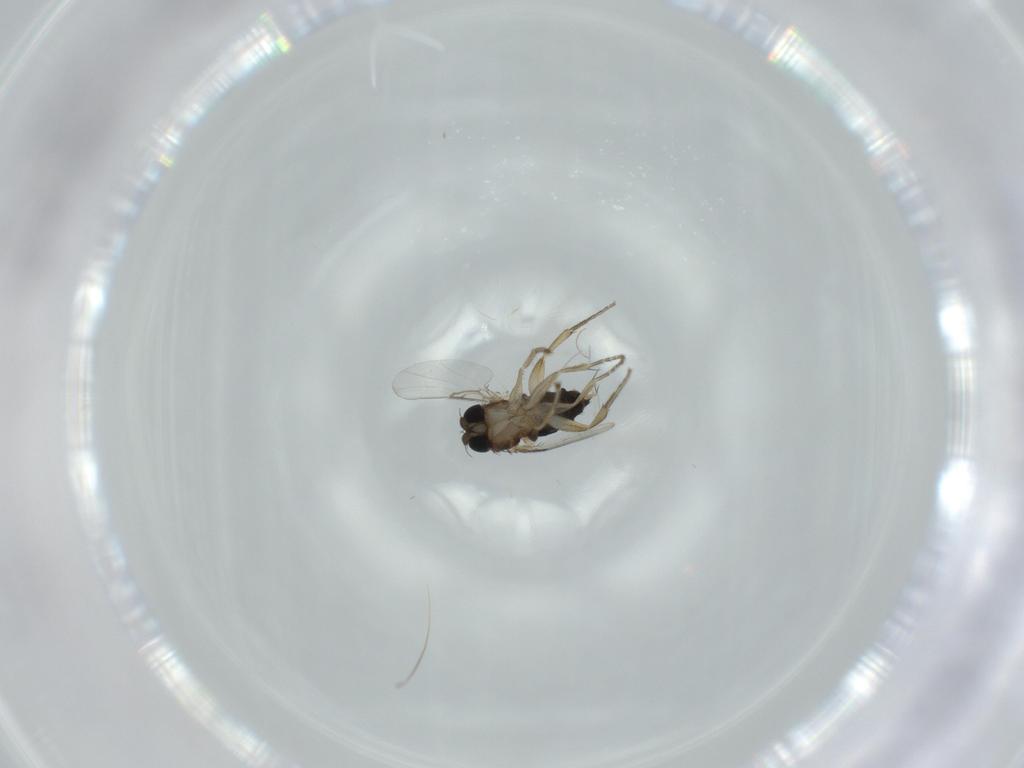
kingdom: Animalia
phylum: Arthropoda
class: Insecta
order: Diptera
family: Phoridae
